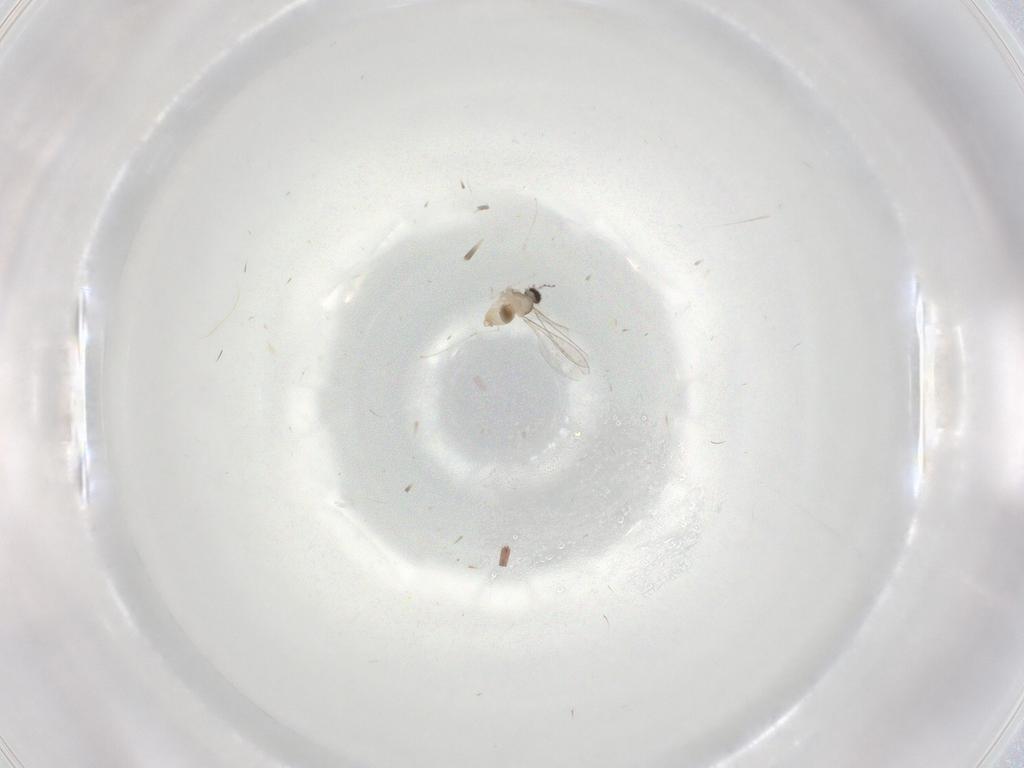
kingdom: Animalia
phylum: Arthropoda
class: Insecta
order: Diptera
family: Cecidomyiidae
